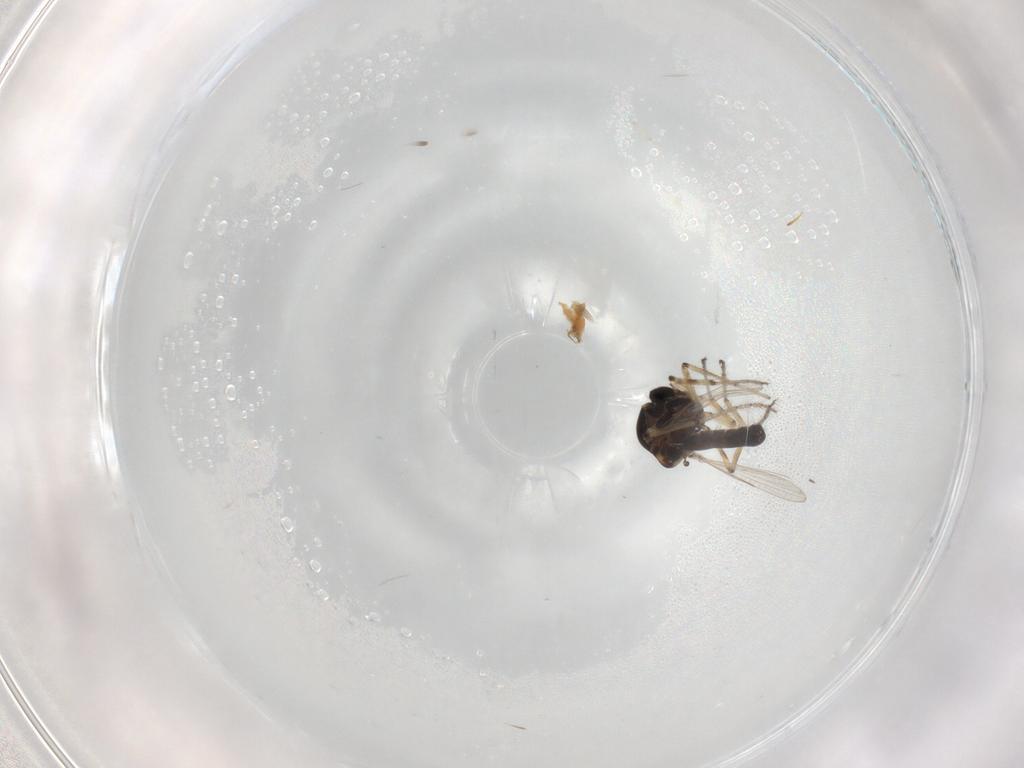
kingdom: Animalia
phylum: Arthropoda
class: Insecta
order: Diptera
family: Ceratopogonidae
